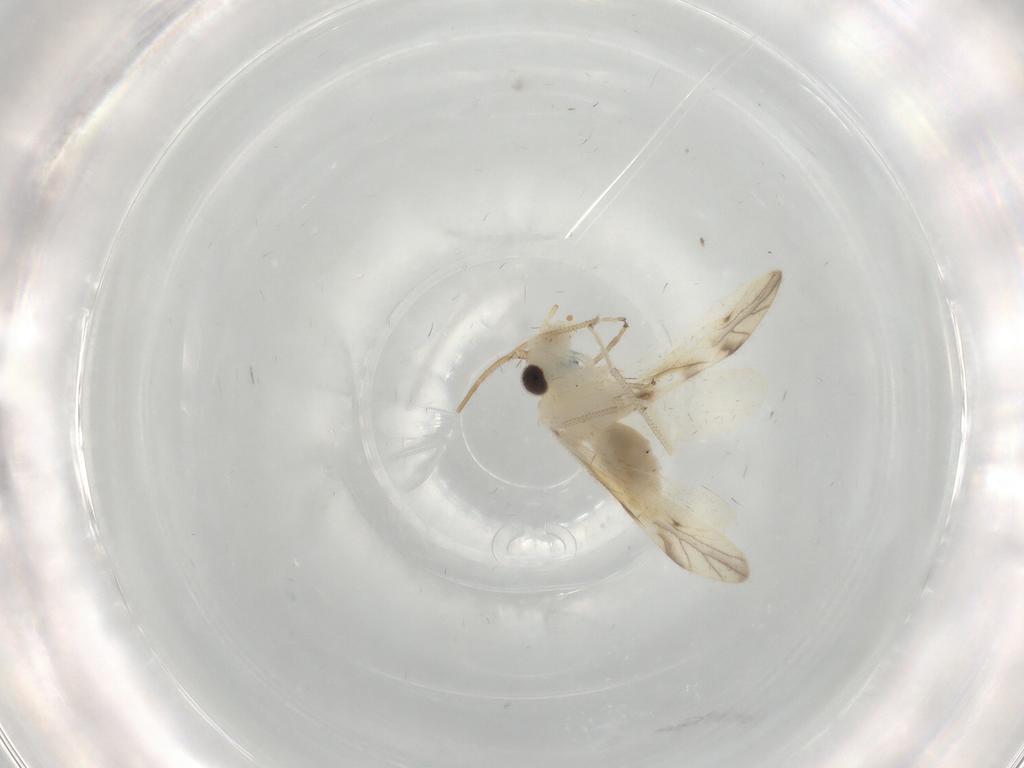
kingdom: Animalia
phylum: Arthropoda
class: Insecta
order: Psocodea
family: Caeciliusidae
